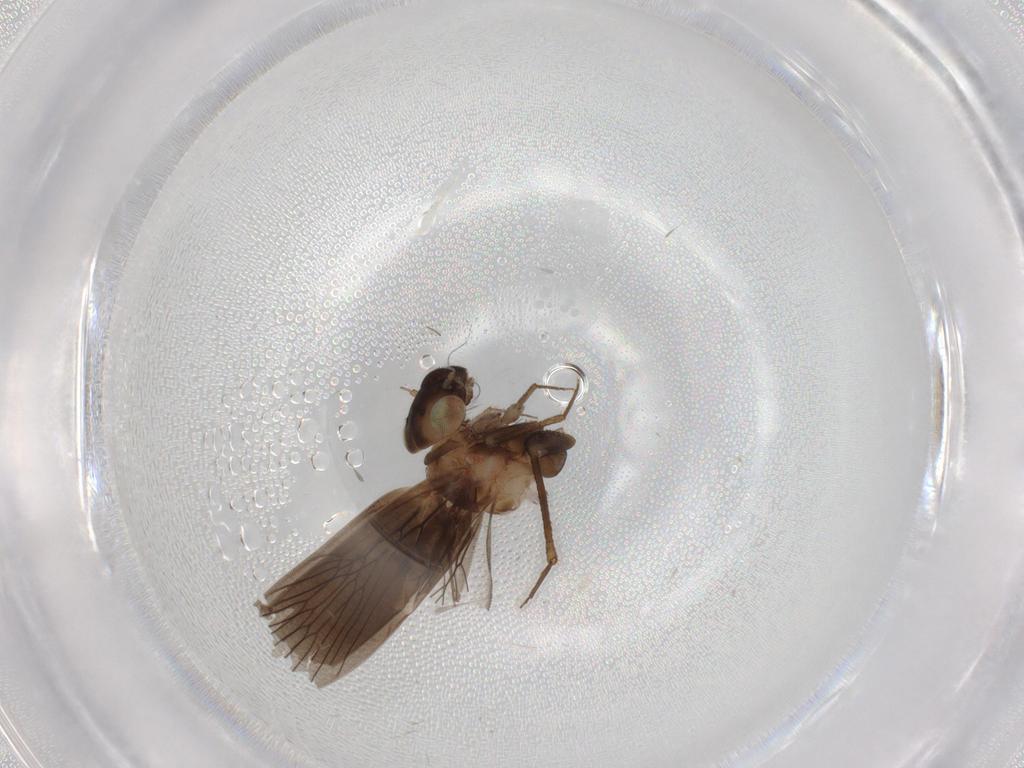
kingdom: Animalia
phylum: Arthropoda
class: Insecta
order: Psocodea
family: Lepidopsocidae
